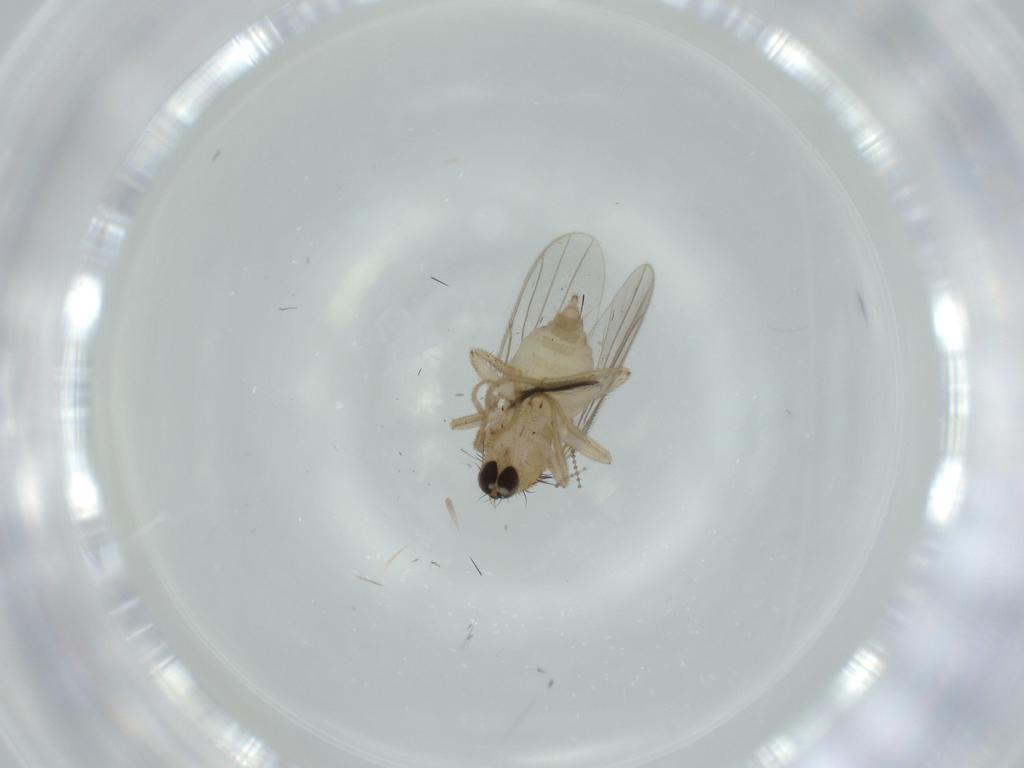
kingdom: Animalia
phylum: Arthropoda
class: Insecta
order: Diptera
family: Hybotidae
